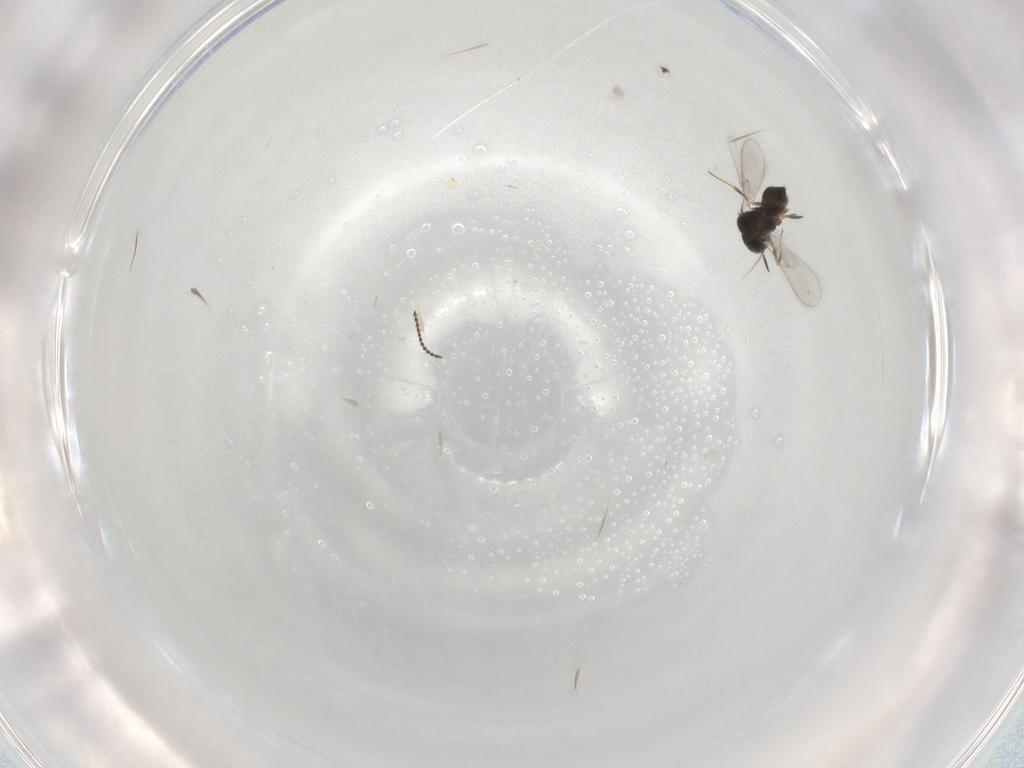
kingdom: Animalia
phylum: Arthropoda
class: Insecta
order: Hymenoptera
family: Scelionidae
